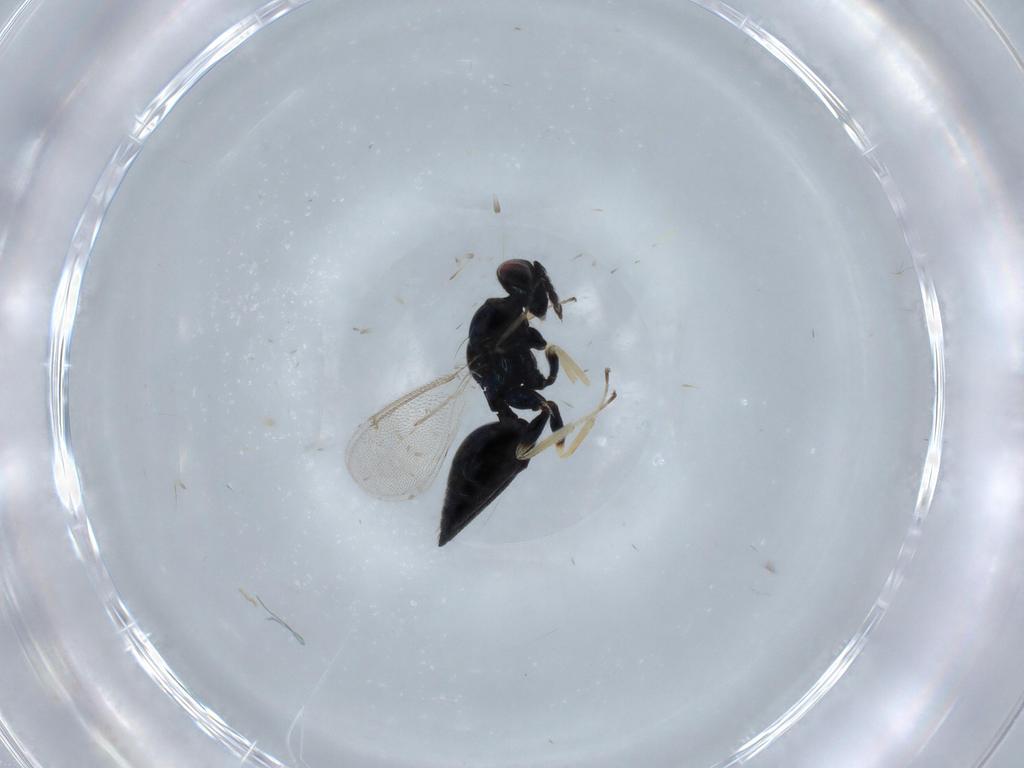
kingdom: Animalia
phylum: Arthropoda
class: Insecta
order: Hymenoptera
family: Eulophidae
